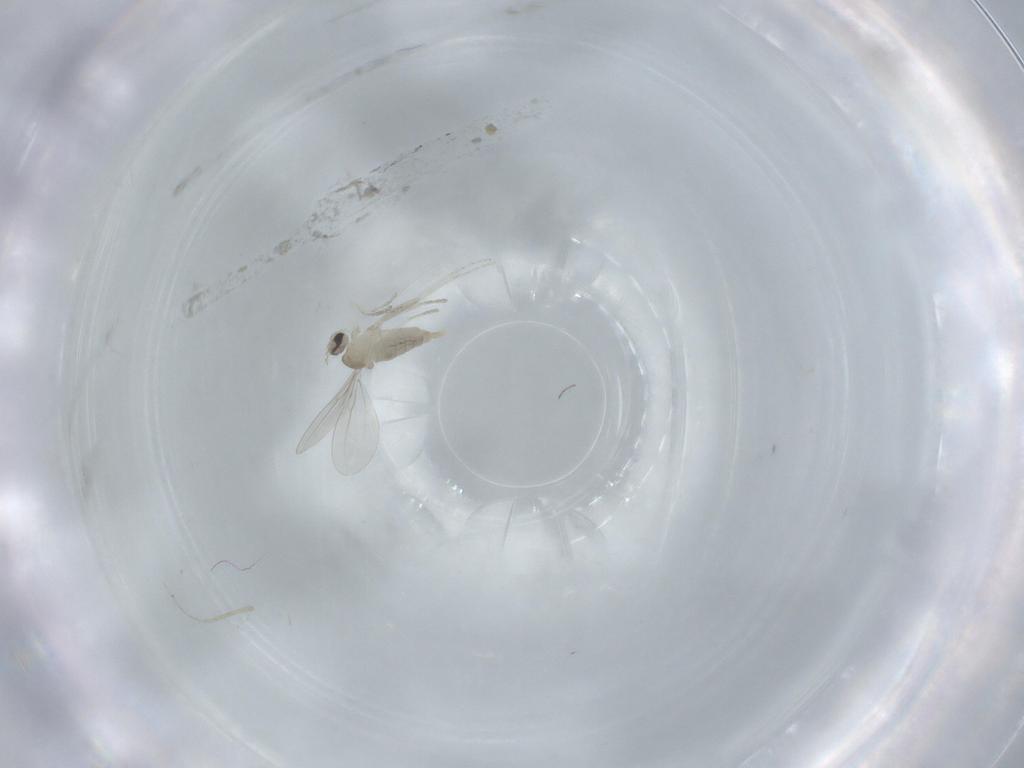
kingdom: Animalia
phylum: Arthropoda
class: Insecta
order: Diptera
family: Cecidomyiidae
